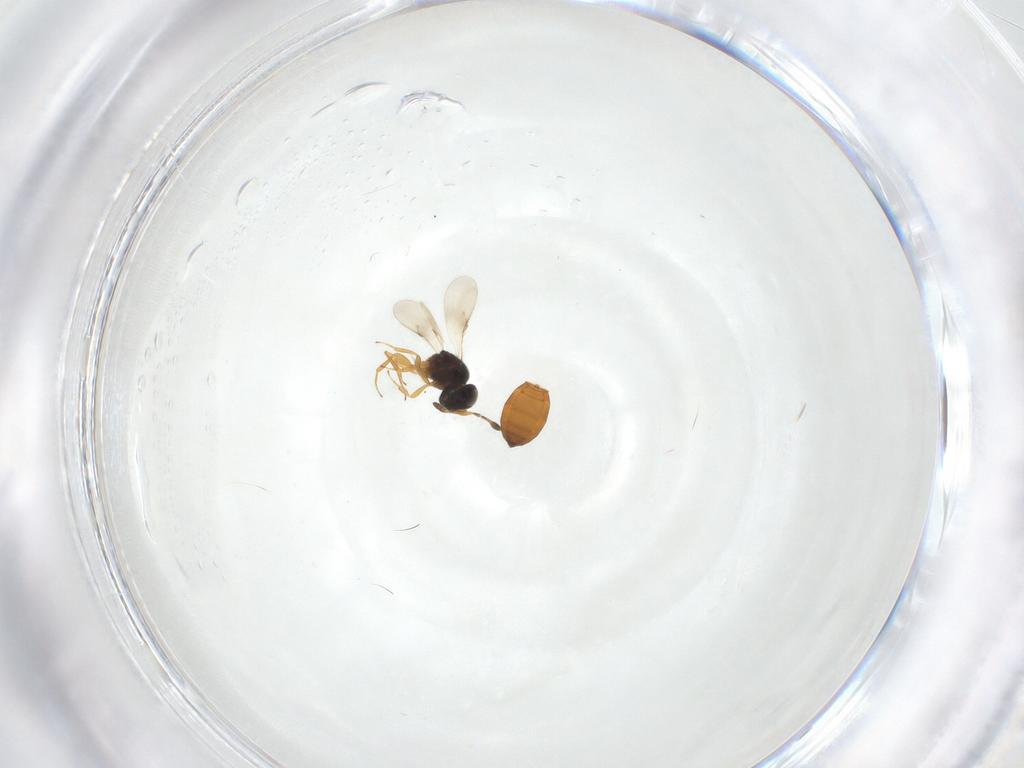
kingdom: Animalia
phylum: Arthropoda
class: Insecta
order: Hymenoptera
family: Scelionidae
